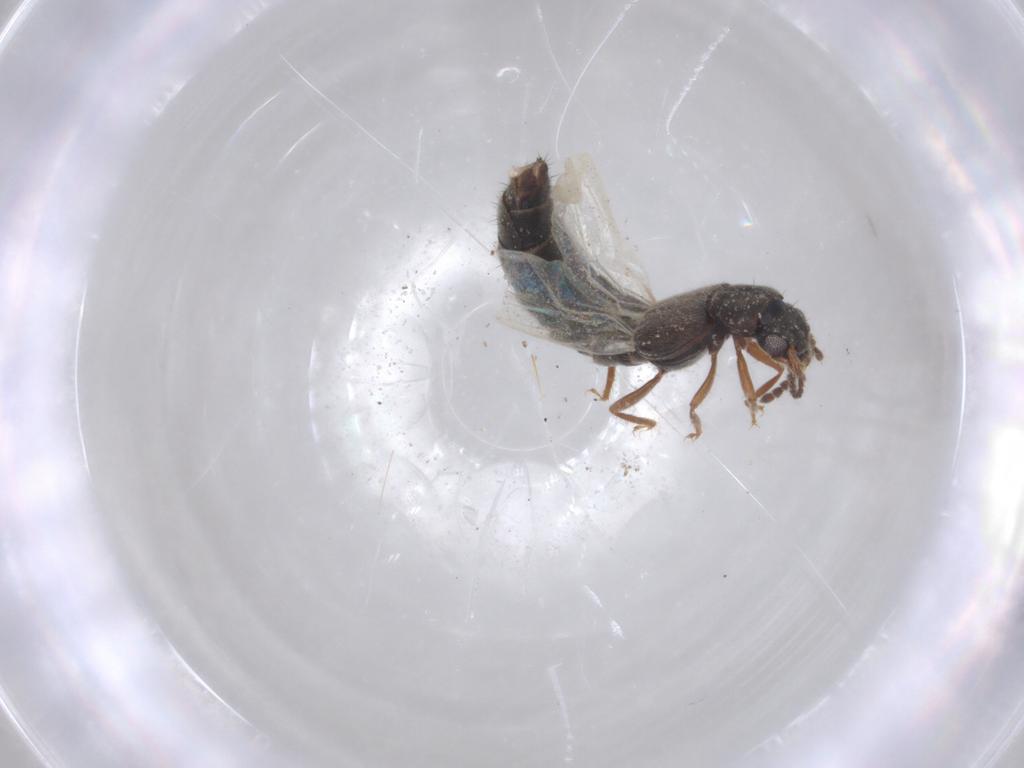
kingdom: Animalia
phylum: Arthropoda
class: Insecta
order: Coleoptera
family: Staphylinidae
